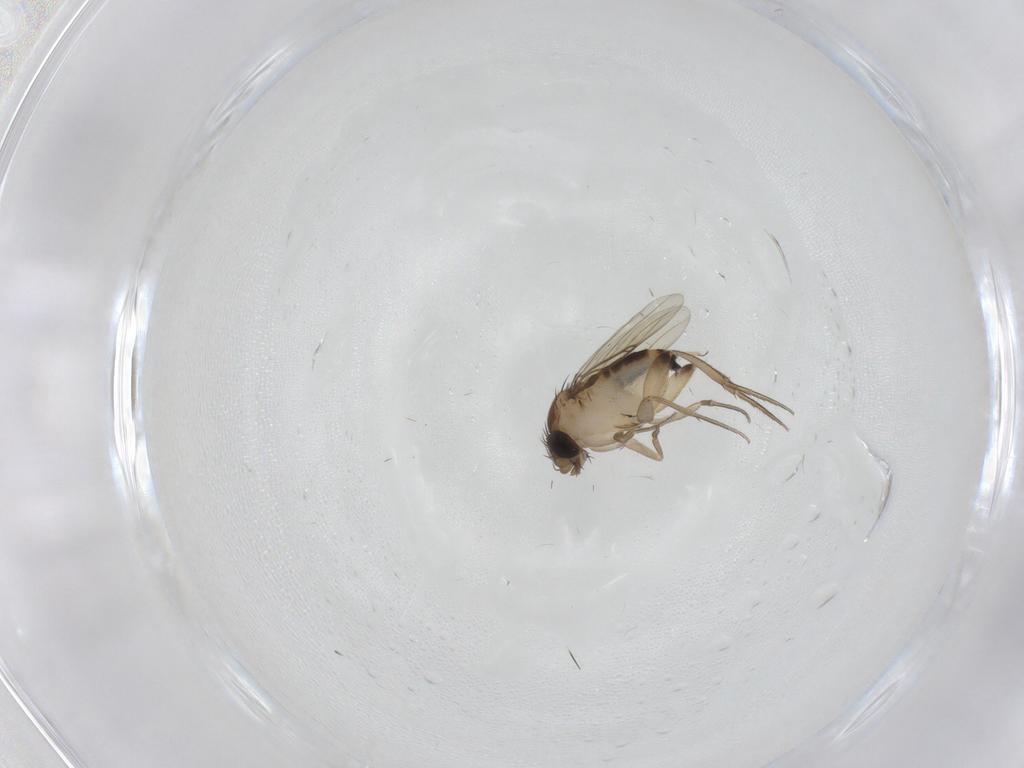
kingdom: Animalia
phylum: Arthropoda
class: Insecta
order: Diptera
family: Phoridae
